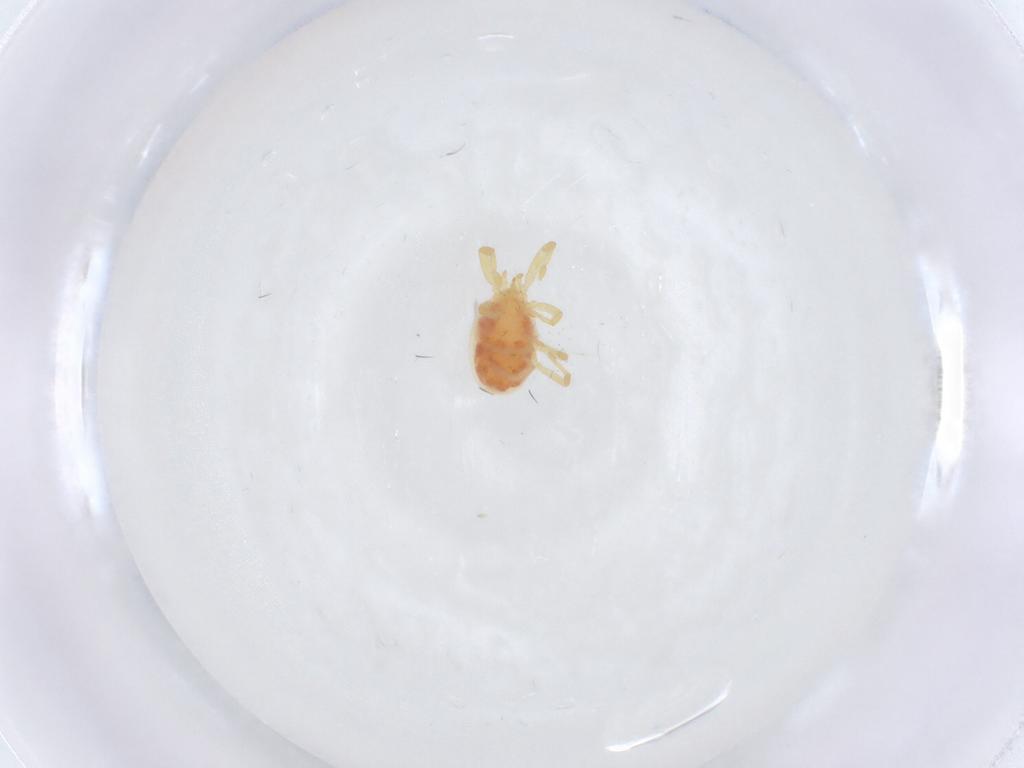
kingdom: Animalia
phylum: Arthropoda
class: Arachnida
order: Trombidiformes
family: Erythraeidae
